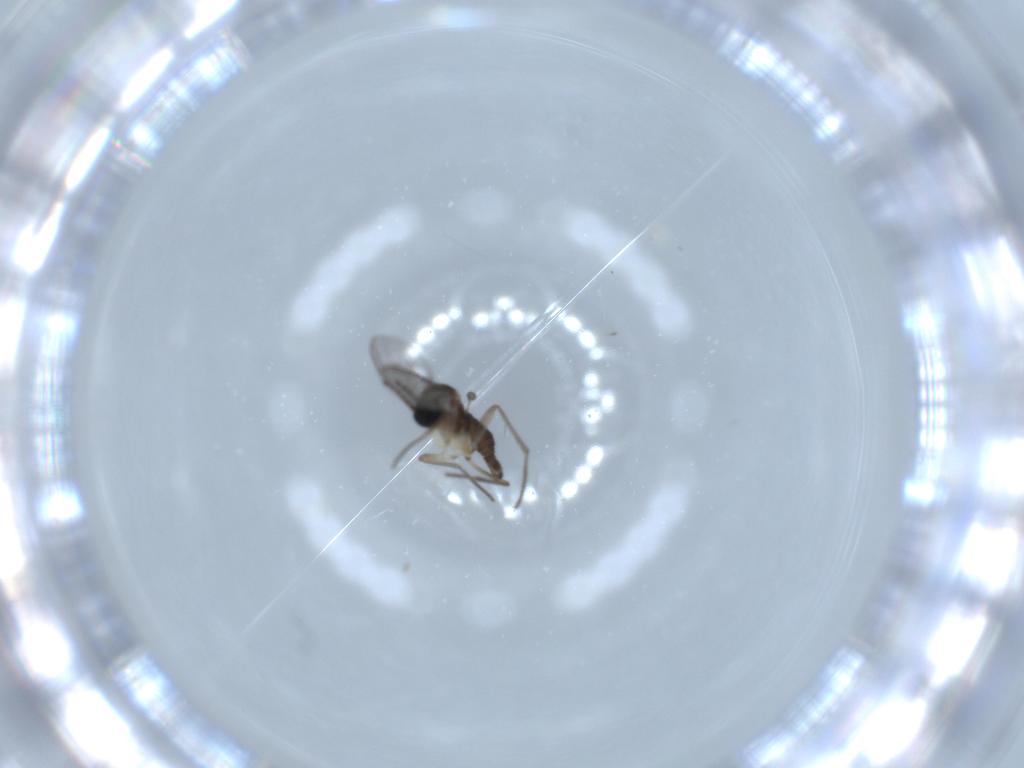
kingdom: Animalia
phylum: Arthropoda
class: Insecta
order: Diptera
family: Sciaridae
